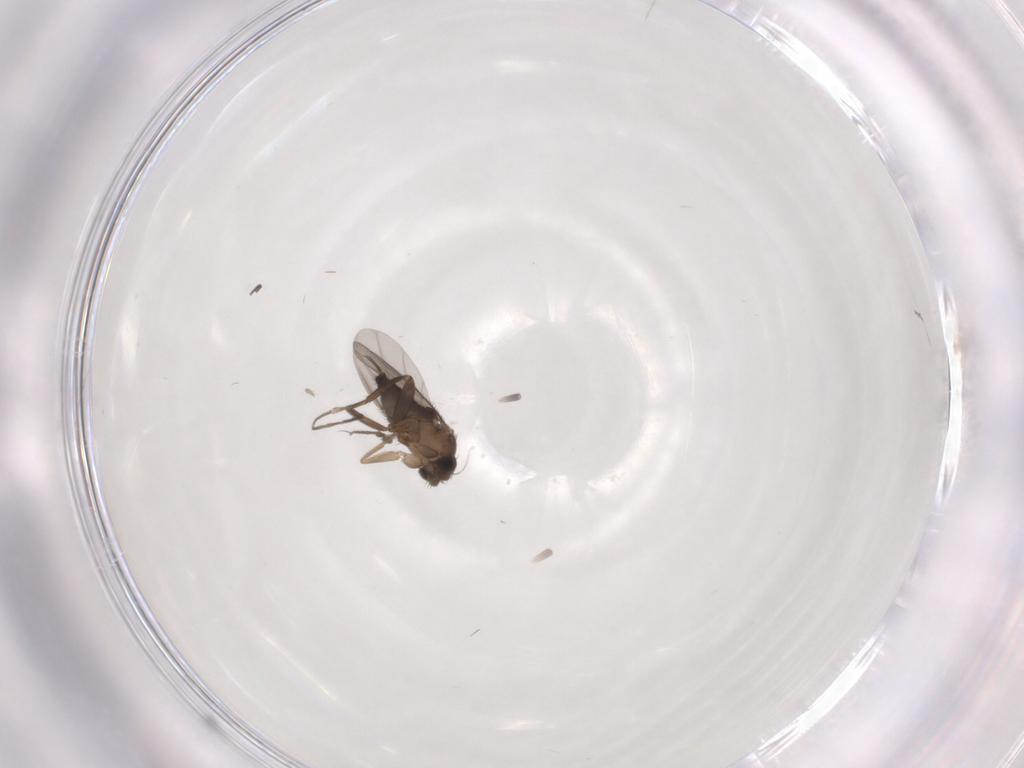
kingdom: Animalia
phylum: Arthropoda
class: Insecta
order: Diptera
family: Phoridae
